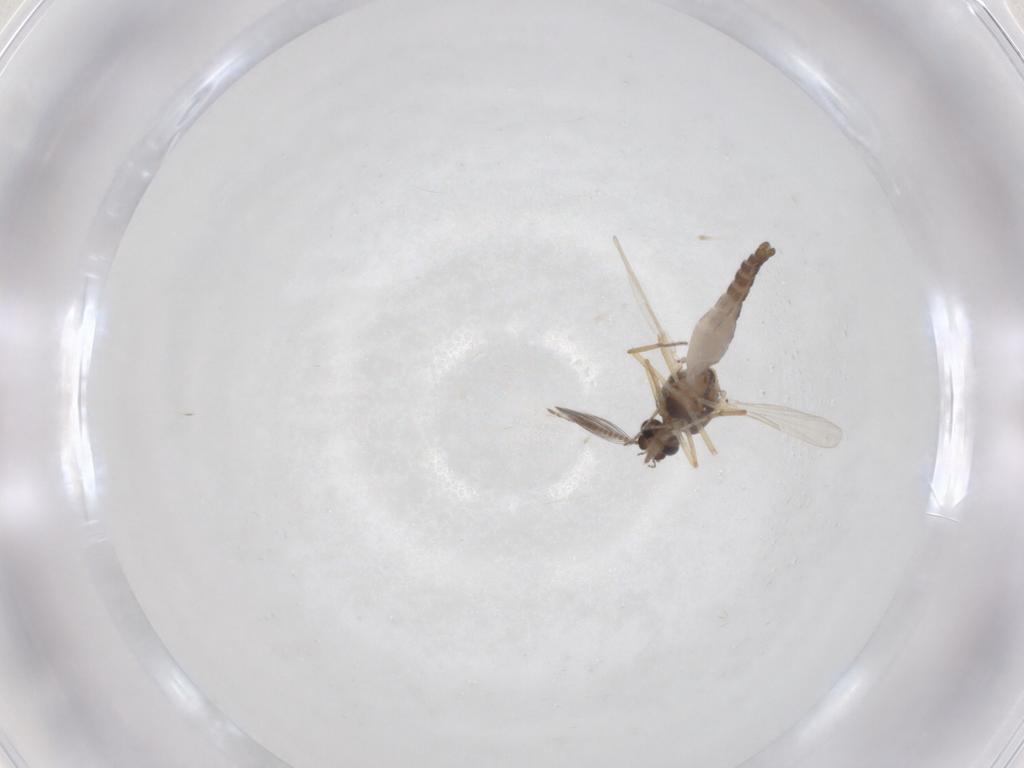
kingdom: Animalia
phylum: Arthropoda
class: Insecta
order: Diptera
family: Ceratopogonidae
